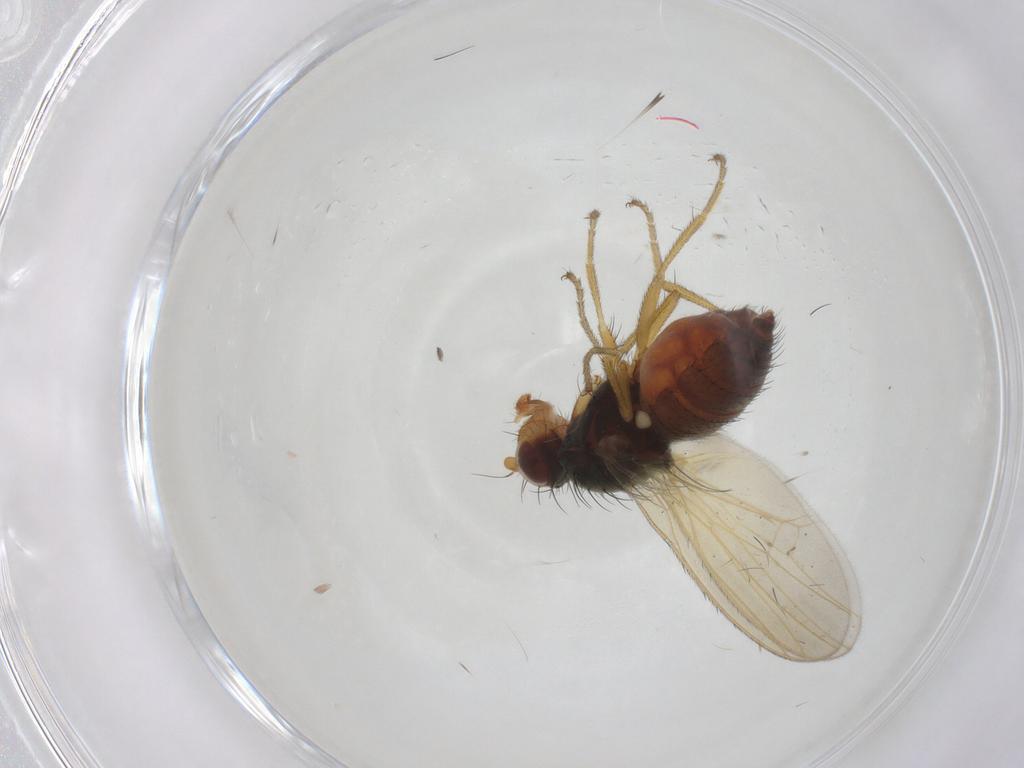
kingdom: Animalia
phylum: Arthropoda
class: Insecta
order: Diptera
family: Heleomyzidae
